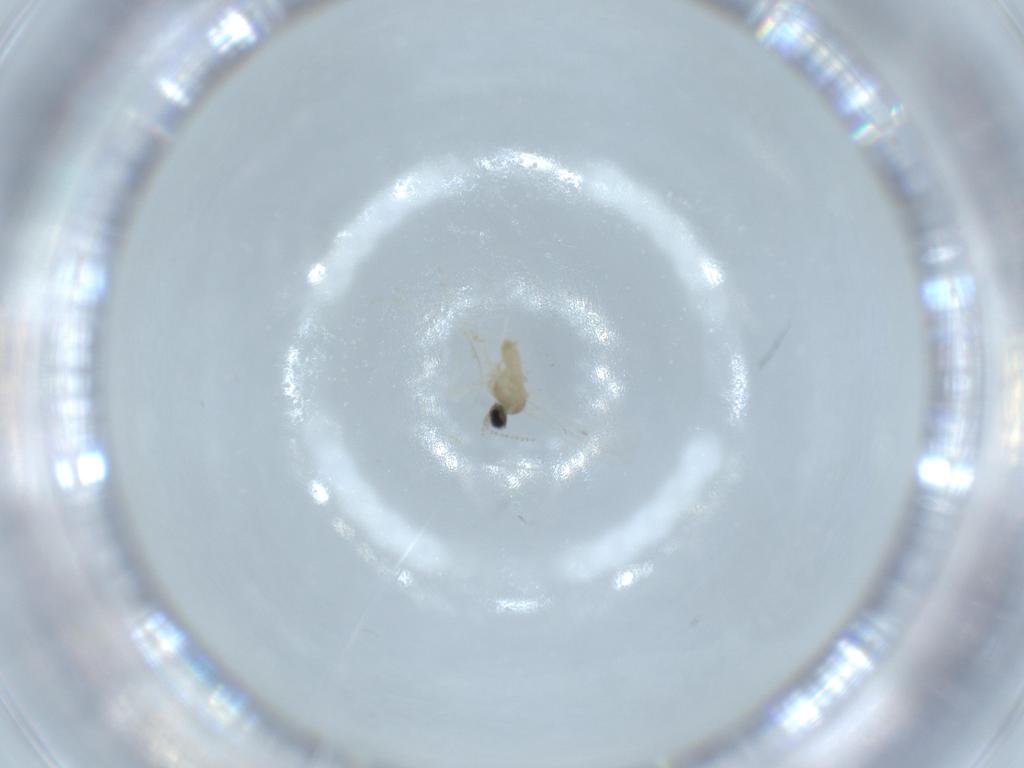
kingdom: Animalia
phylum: Arthropoda
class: Insecta
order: Diptera
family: Cecidomyiidae
